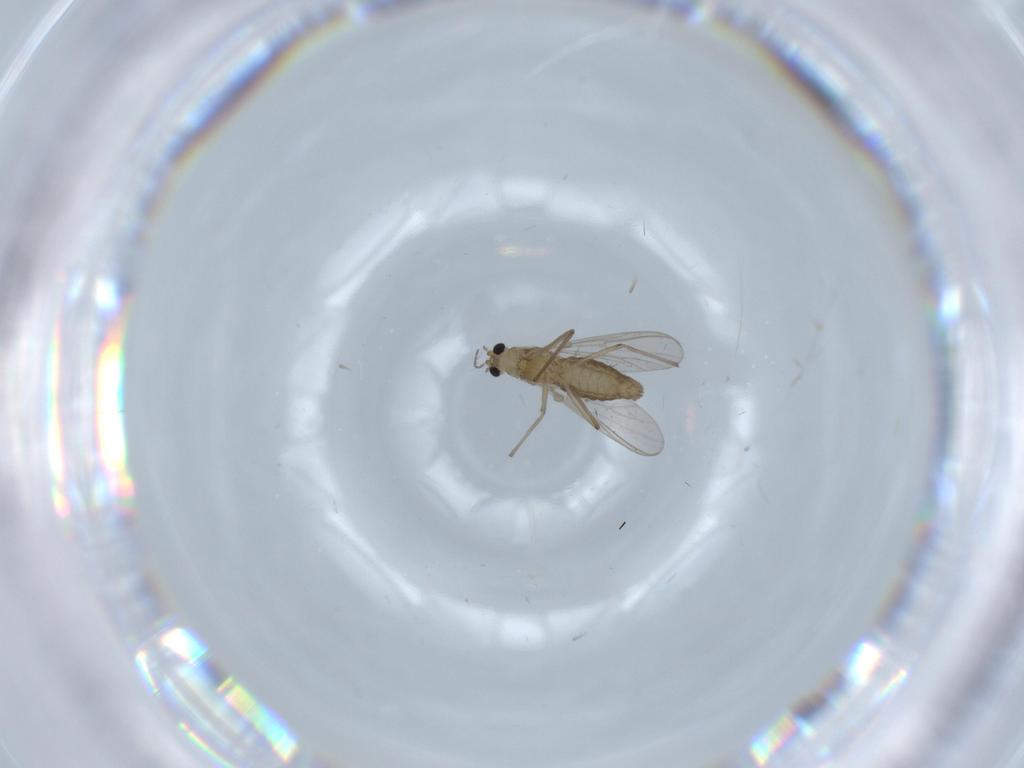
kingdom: Animalia
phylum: Arthropoda
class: Insecta
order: Diptera
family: Chironomidae
